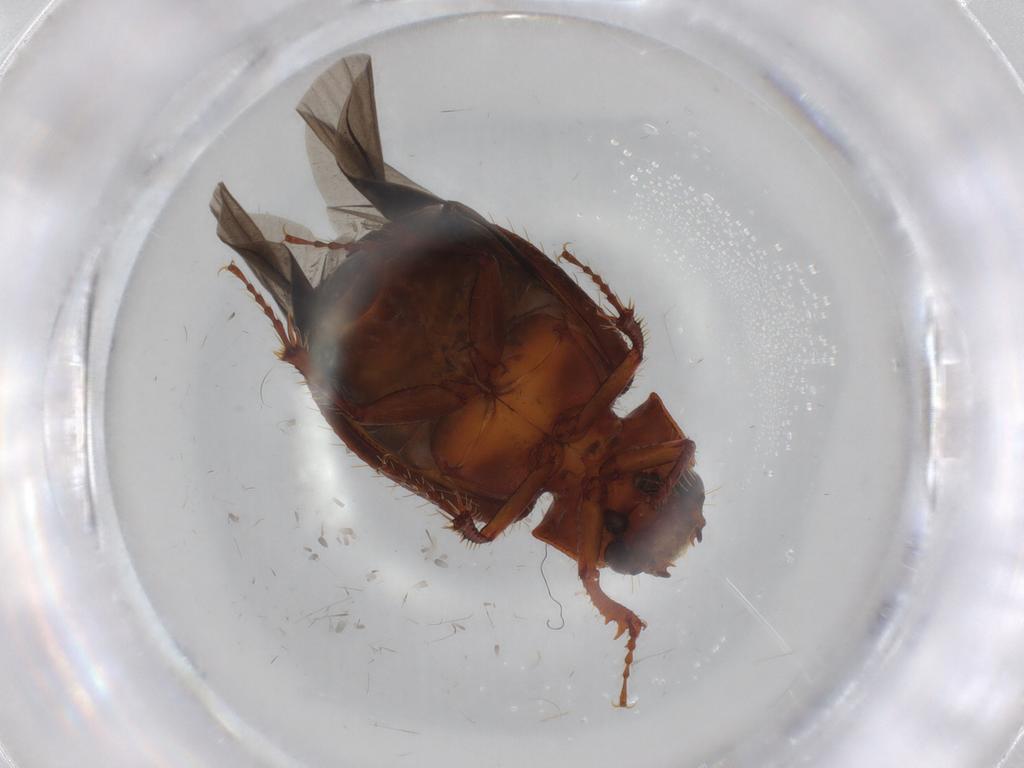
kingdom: Animalia
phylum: Arthropoda
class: Insecta
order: Coleoptera
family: Hybosoridae
